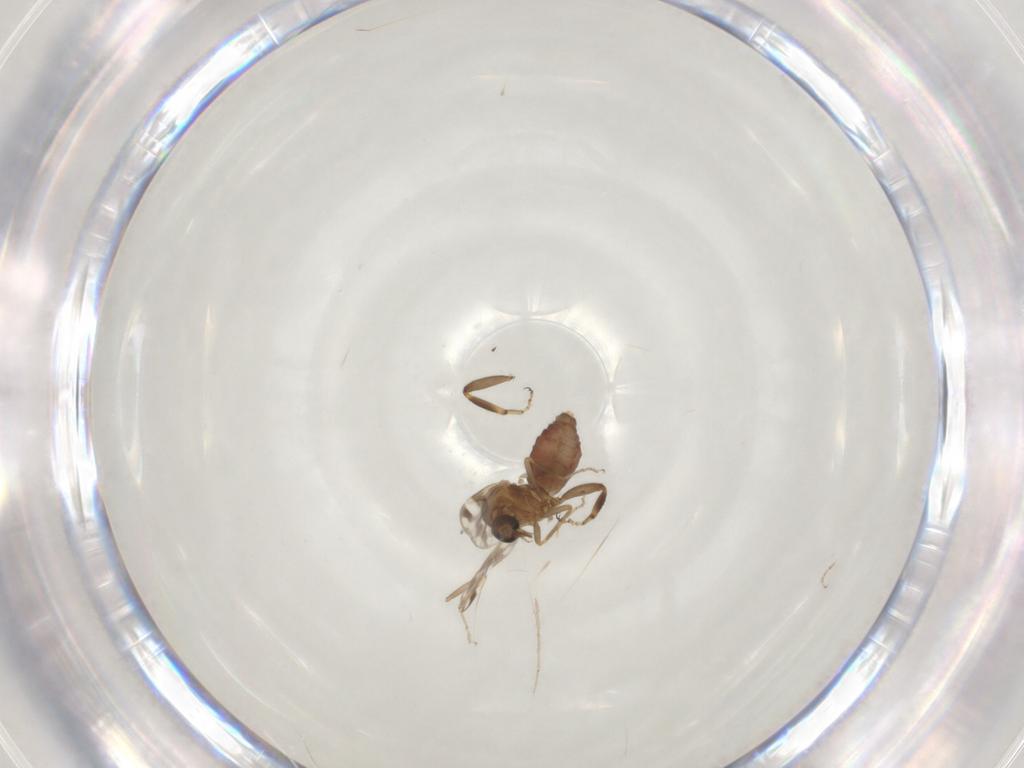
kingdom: Animalia
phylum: Arthropoda
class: Insecta
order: Diptera
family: Ceratopogonidae
